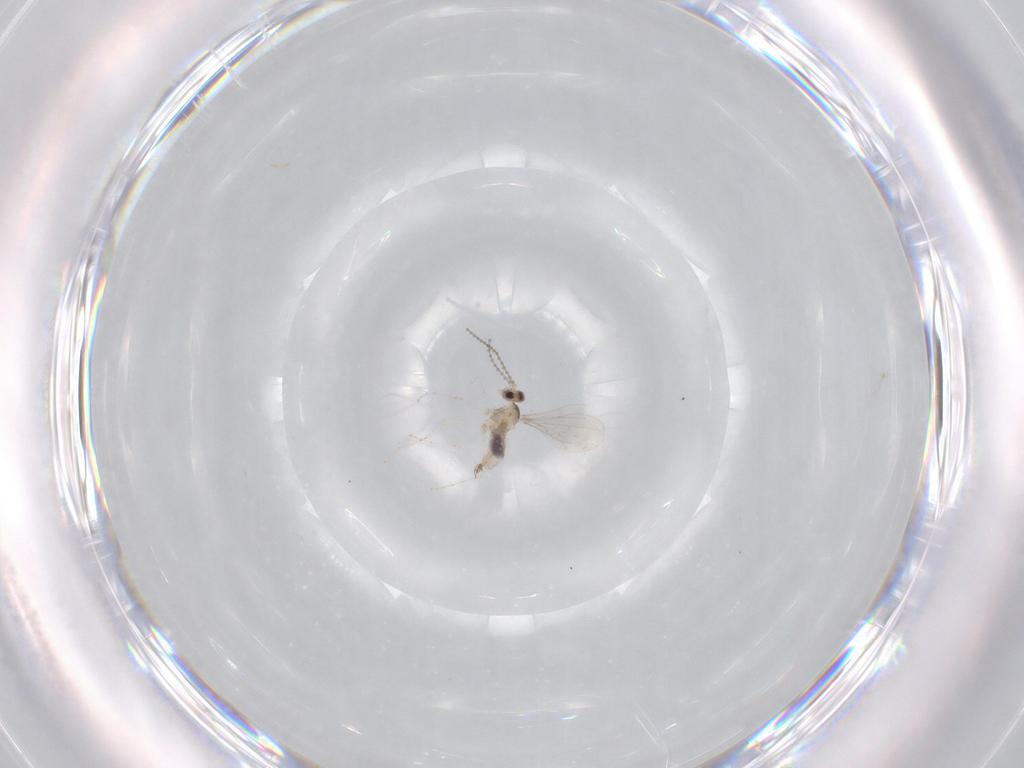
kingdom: Animalia
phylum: Arthropoda
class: Insecta
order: Diptera
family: Cecidomyiidae
